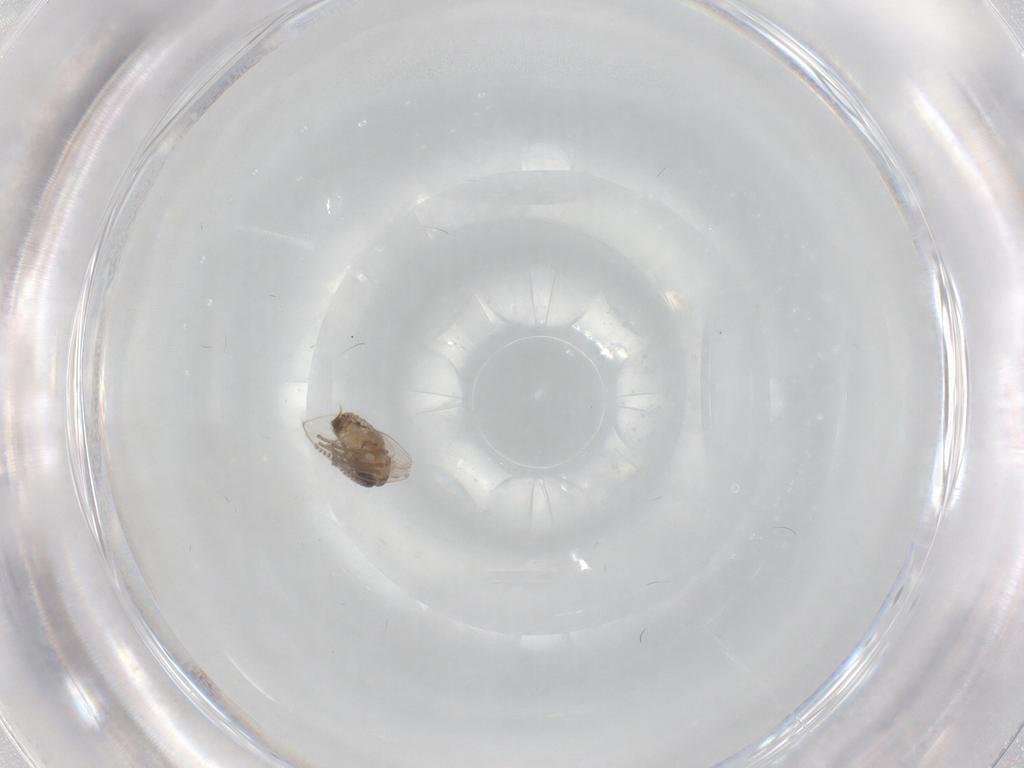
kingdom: Animalia
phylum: Arthropoda
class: Insecta
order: Diptera
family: Psychodidae
